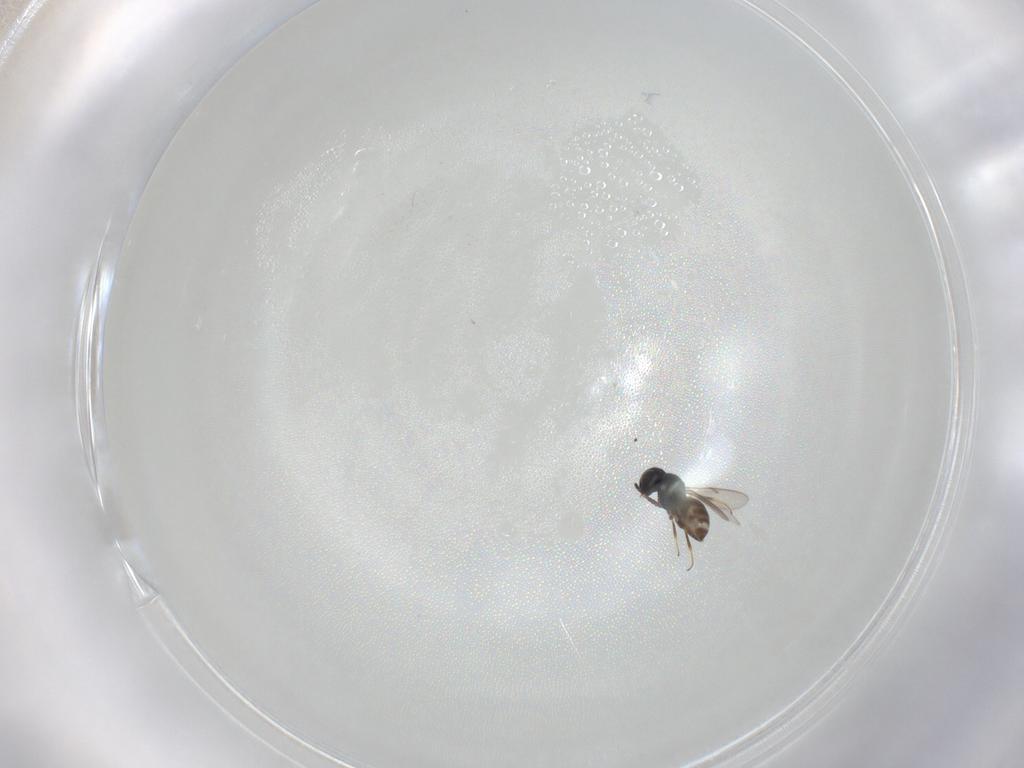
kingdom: Animalia
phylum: Arthropoda
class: Insecta
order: Hymenoptera
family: Scelionidae
